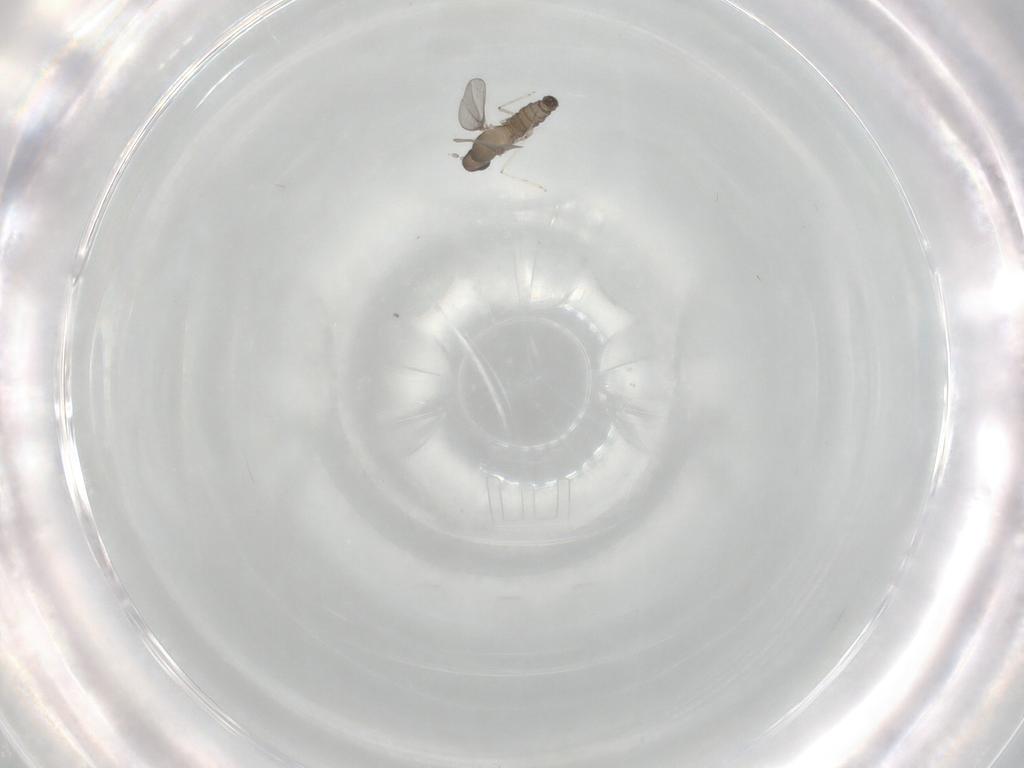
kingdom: Animalia
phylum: Arthropoda
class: Insecta
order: Diptera
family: Cecidomyiidae
